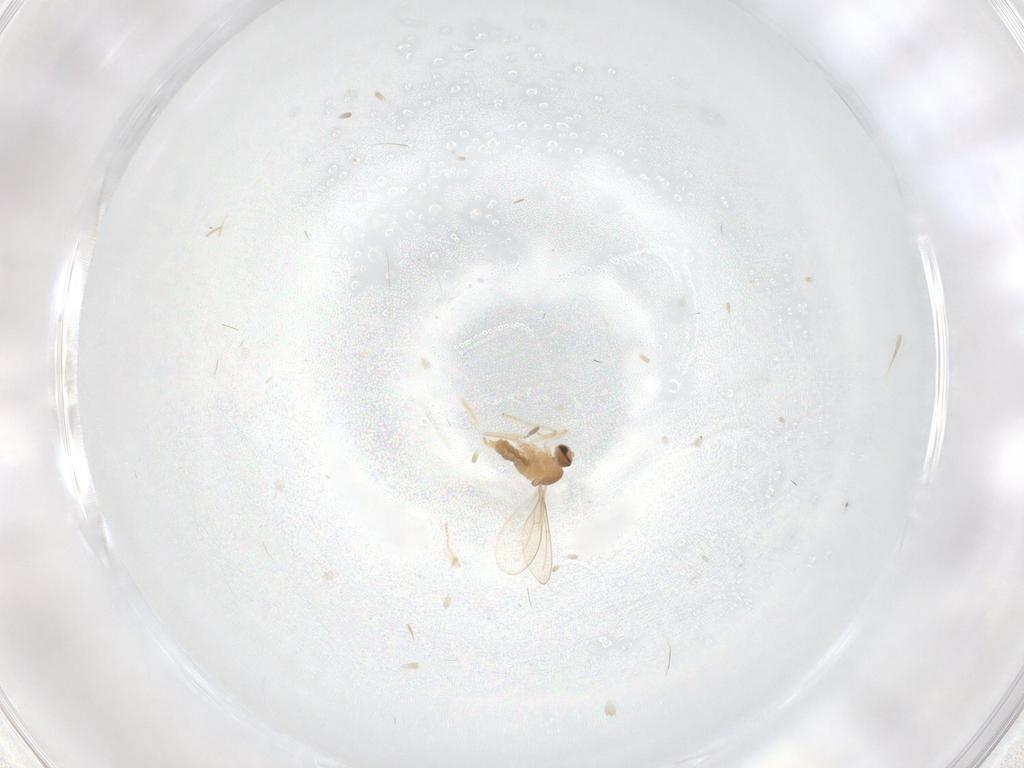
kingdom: Animalia
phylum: Arthropoda
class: Insecta
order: Diptera
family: Cecidomyiidae
